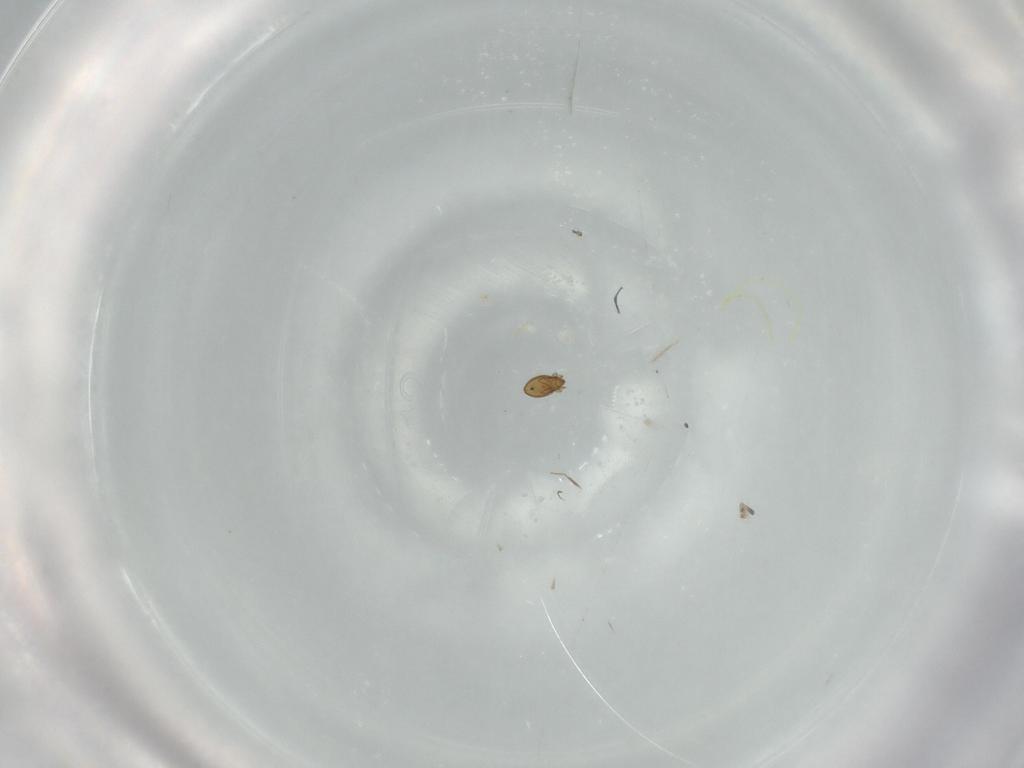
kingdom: Animalia
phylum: Arthropoda
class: Arachnida
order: Sarcoptiformes
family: Oribatulidae
